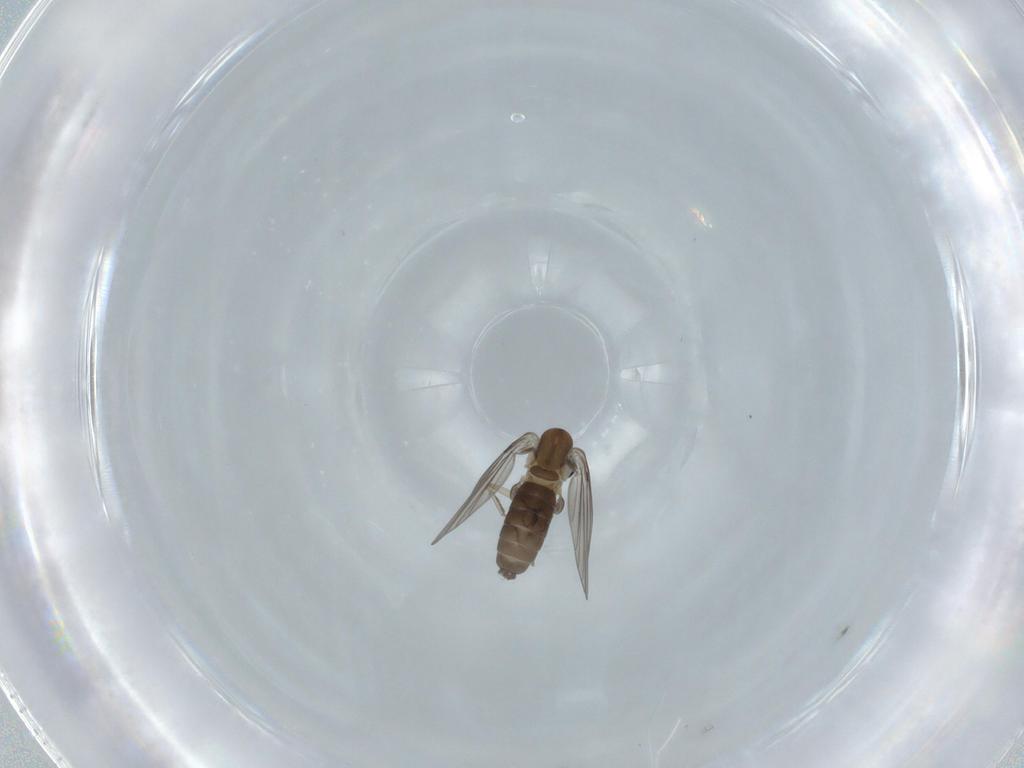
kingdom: Animalia
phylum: Arthropoda
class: Insecta
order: Diptera
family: Psychodidae
